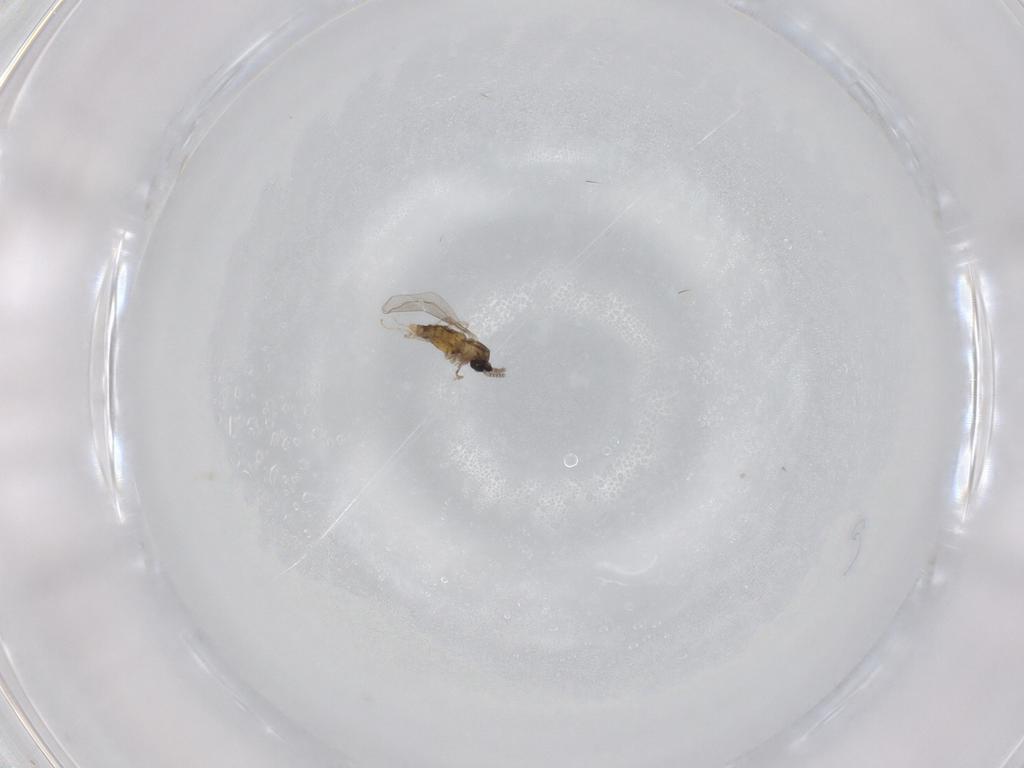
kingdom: Animalia
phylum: Arthropoda
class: Insecta
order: Diptera
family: Cecidomyiidae
